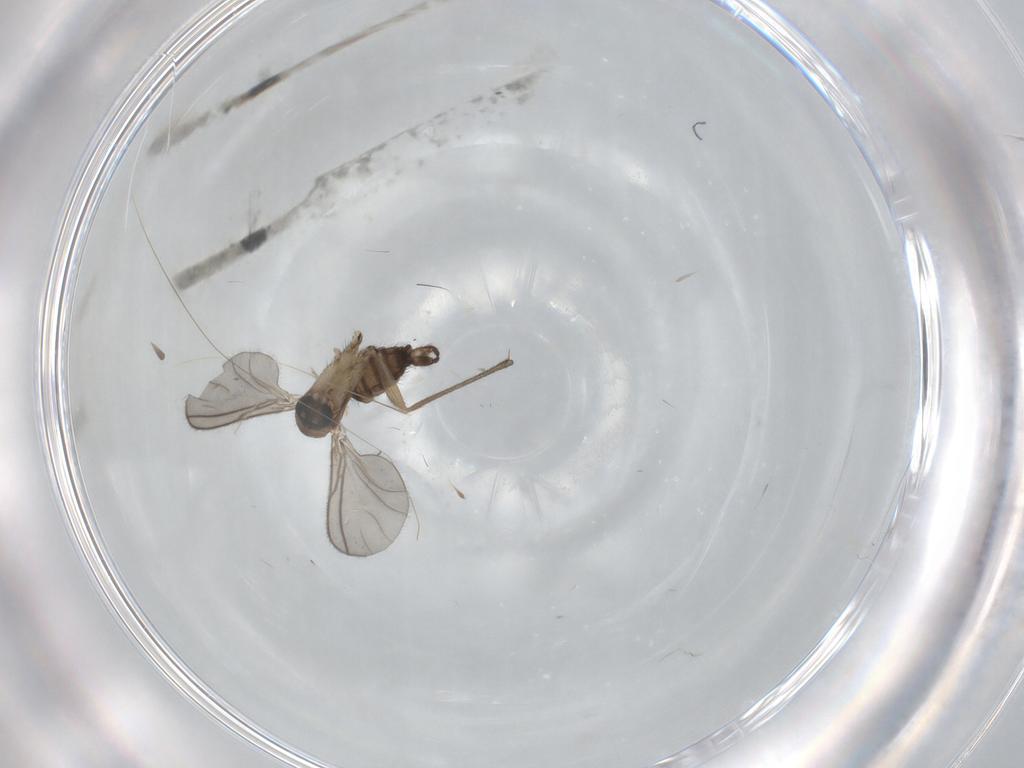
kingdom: Animalia
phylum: Arthropoda
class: Insecta
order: Diptera
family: Sciaridae
